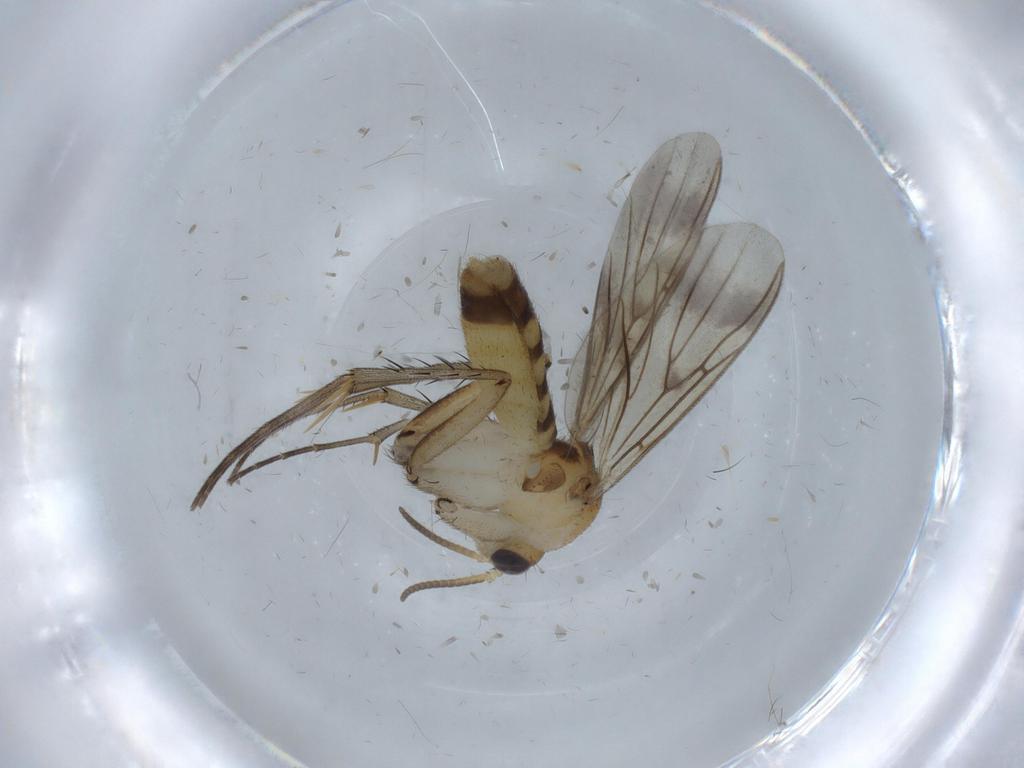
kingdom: Animalia
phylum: Arthropoda
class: Insecta
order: Diptera
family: Mycetophilidae
